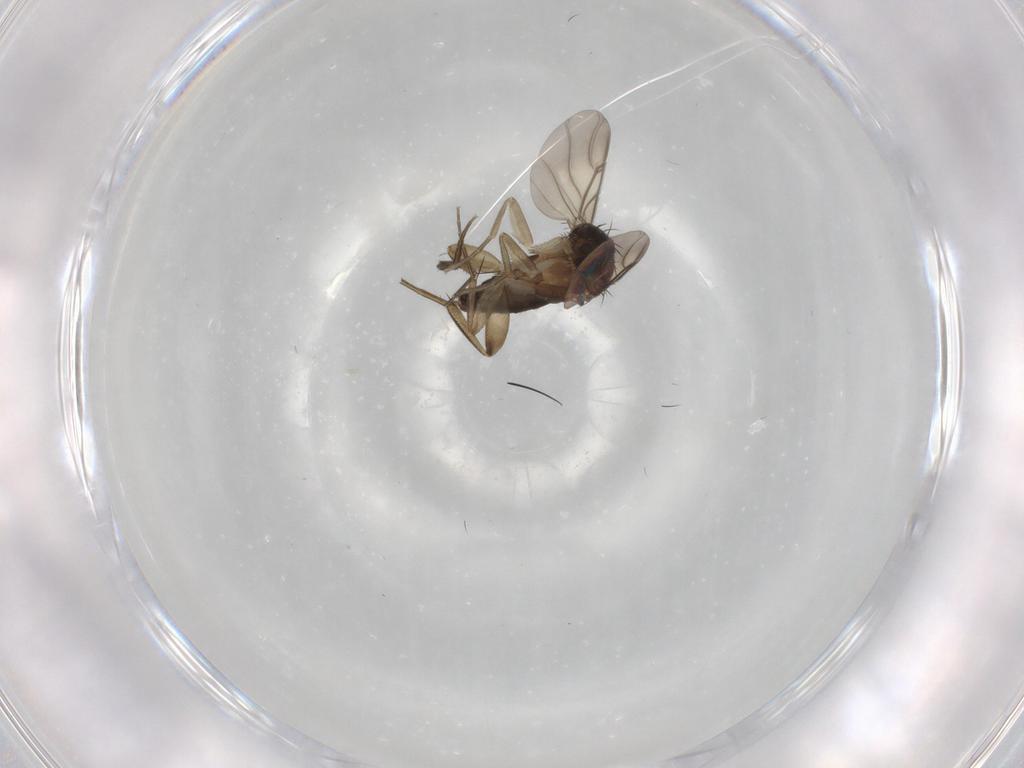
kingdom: Animalia
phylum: Arthropoda
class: Insecta
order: Diptera
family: Phoridae
